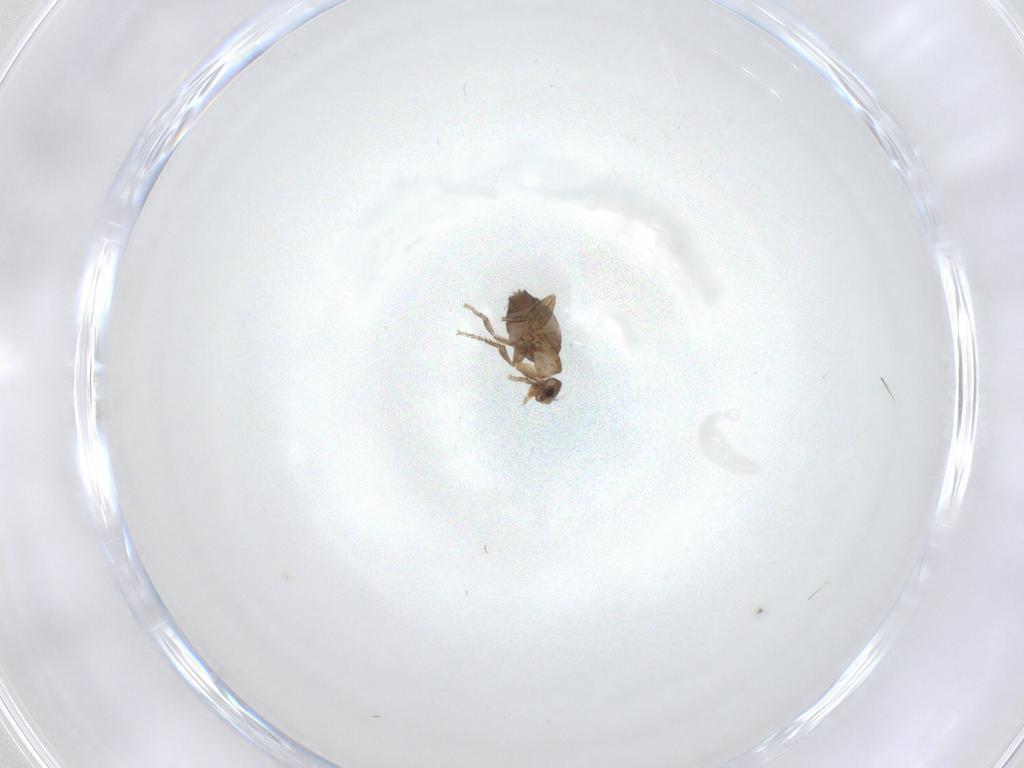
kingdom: Animalia
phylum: Arthropoda
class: Insecta
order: Diptera
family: Phoridae
